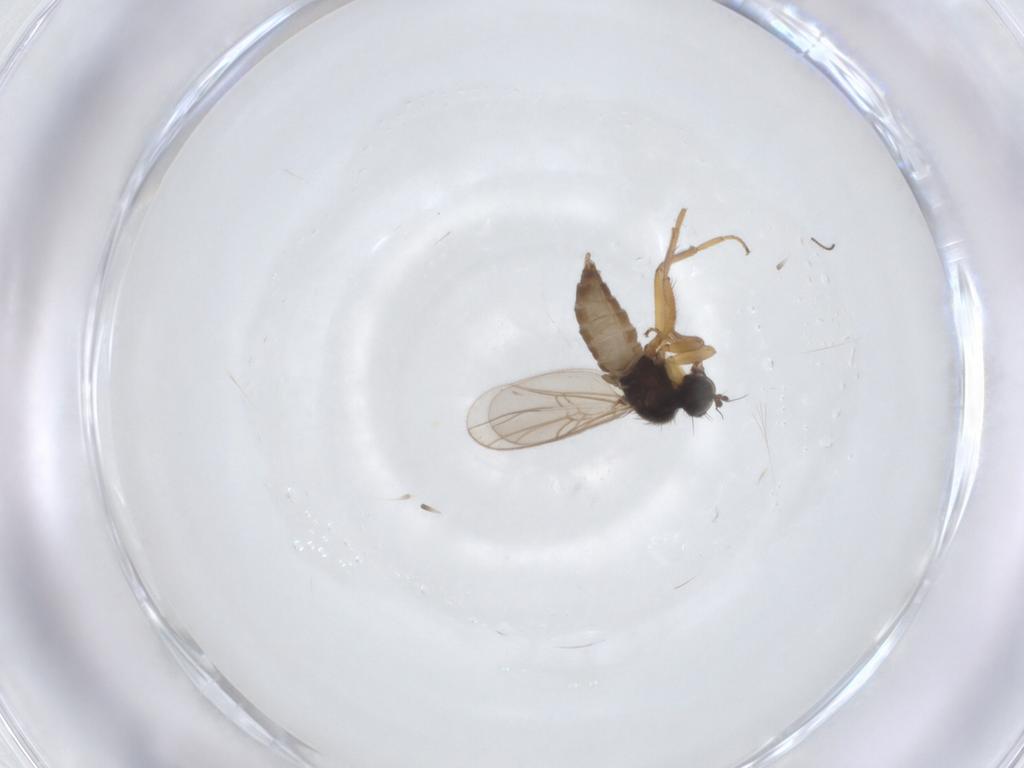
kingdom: Animalia
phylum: Arthropoda
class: Insecta
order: Diptera
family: Hybotidae
